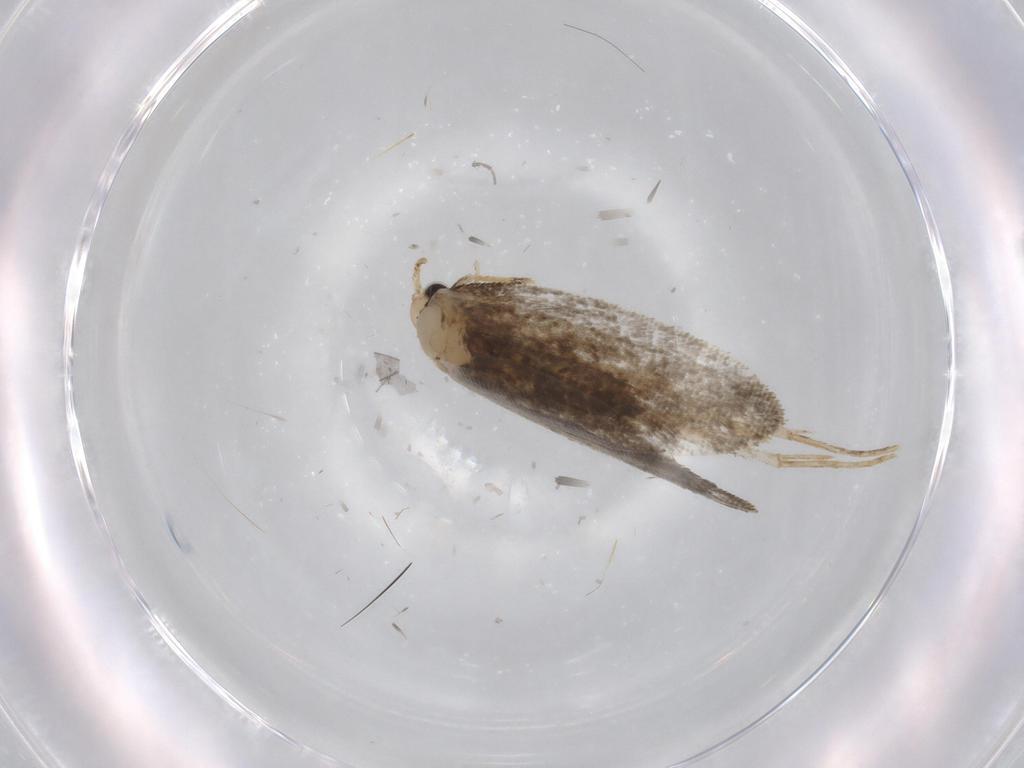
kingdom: Animalia
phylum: Arthropoda
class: Insecta
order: Lepidoptera
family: Psychidae
